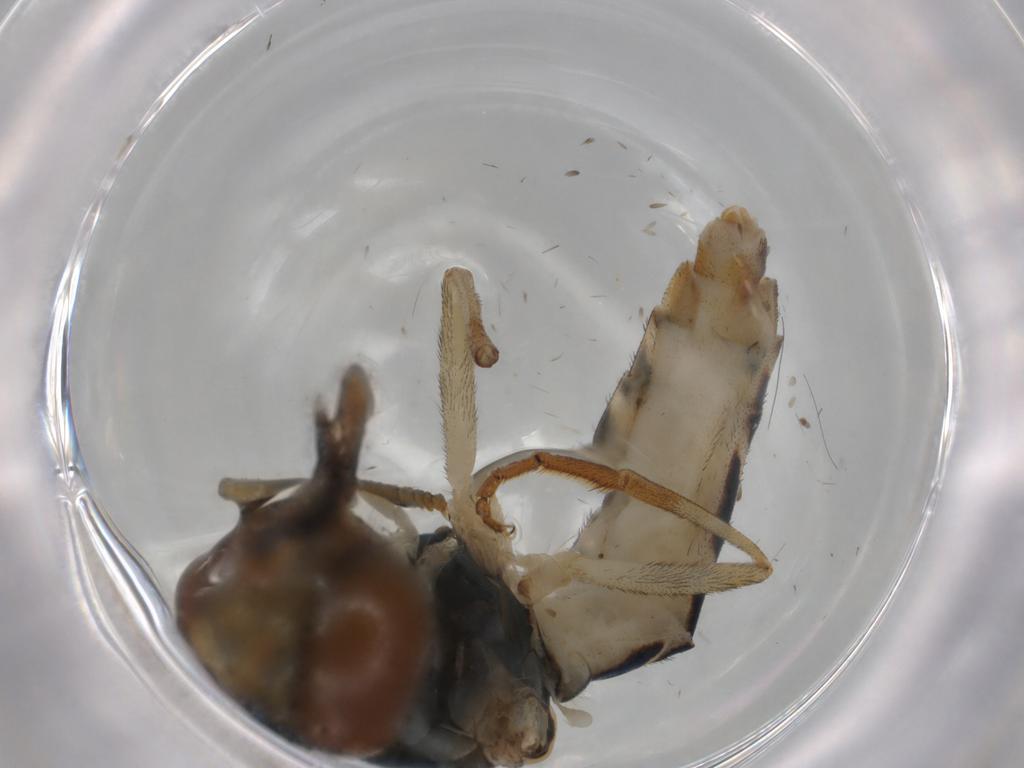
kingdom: Animalia
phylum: Arthropoda
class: Insecta
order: Diptera
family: Syrphidae
